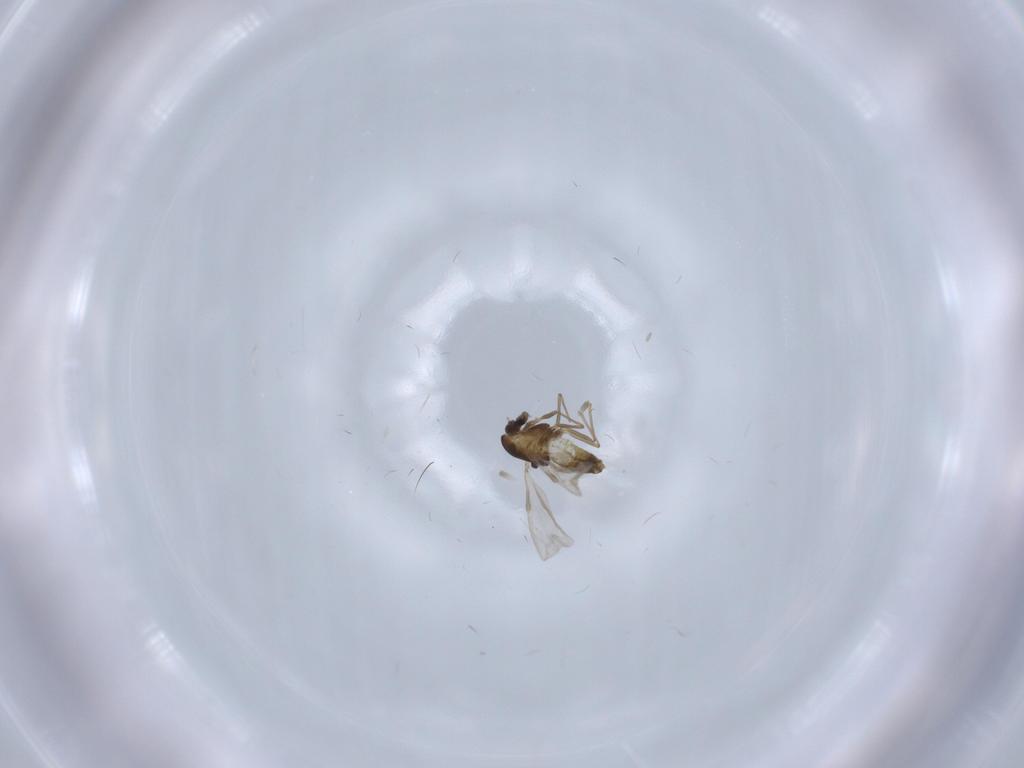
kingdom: Animalia
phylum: Arthropoda
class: Insecta
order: Diptera
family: Chironomidae
